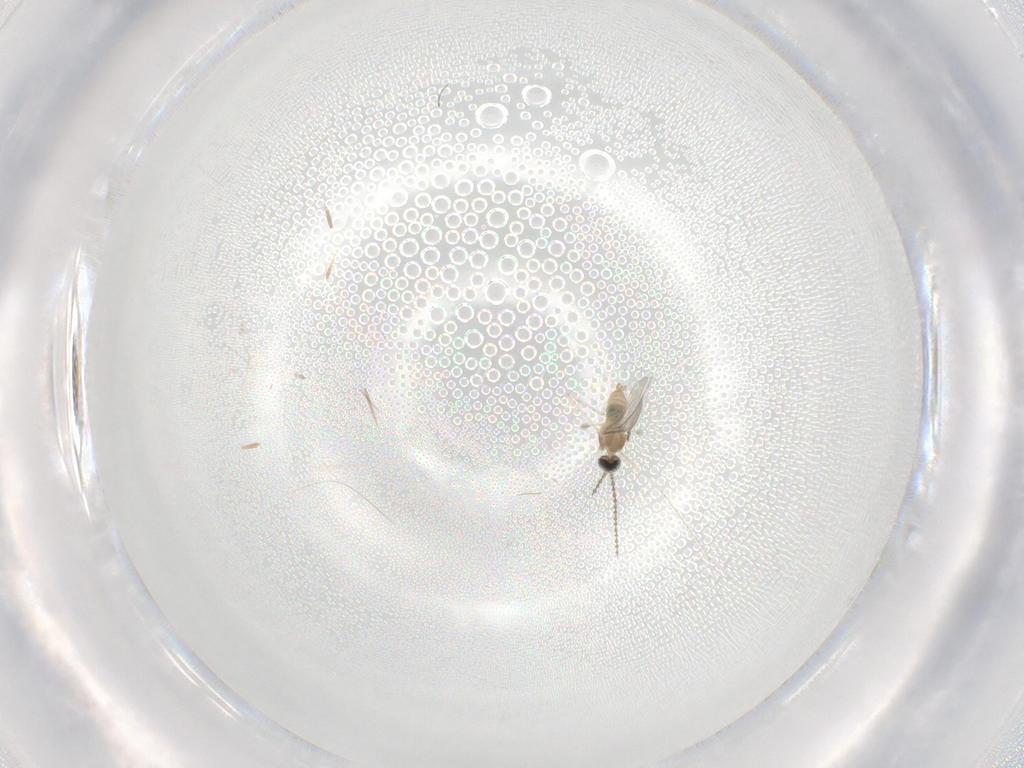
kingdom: Animalia
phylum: Arthropoda
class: Insecta
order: Diptera
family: Cecidomyiidae
